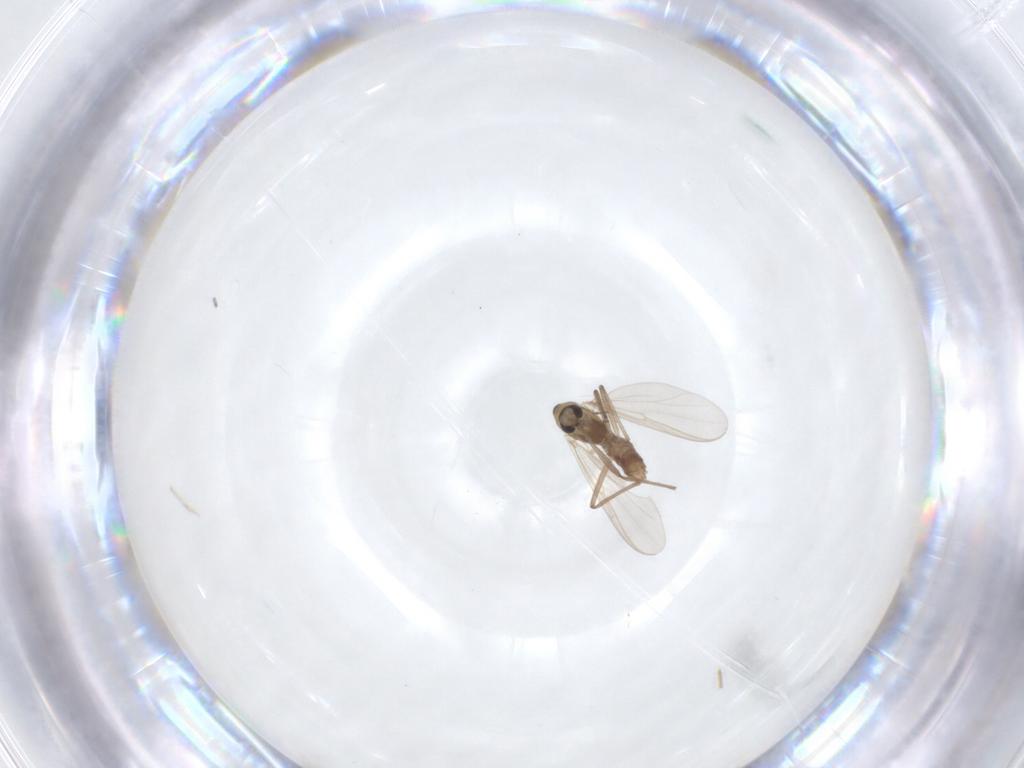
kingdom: Animalia
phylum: Arthropoda
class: Insecta
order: Diptera
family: Chironomidae
